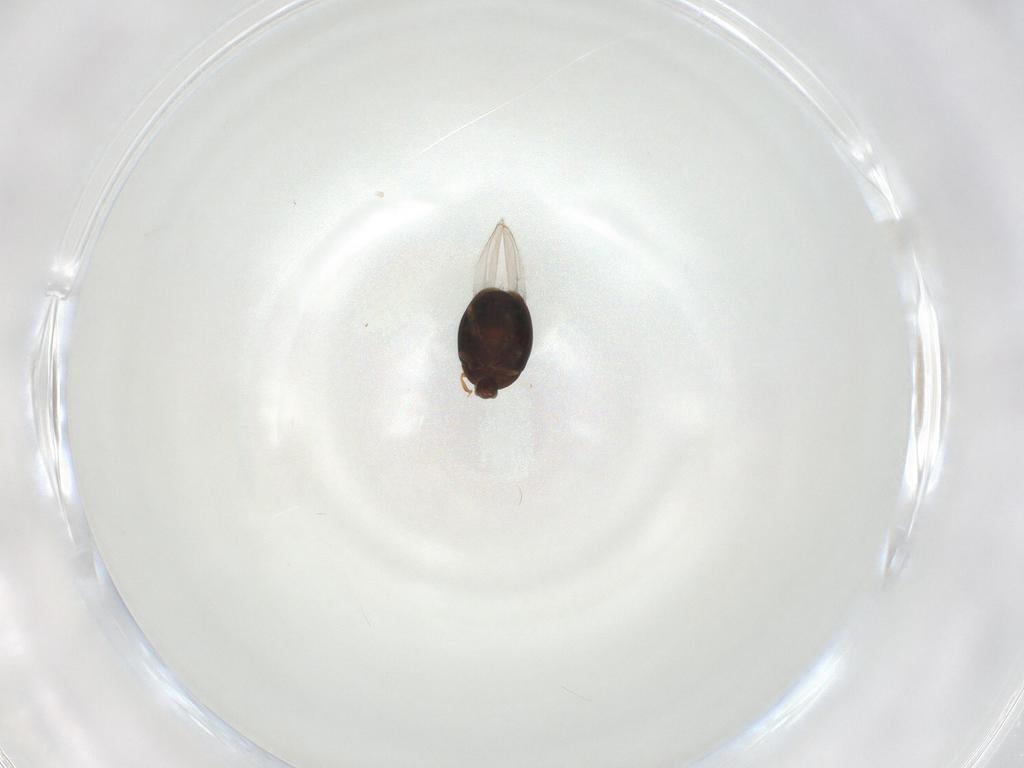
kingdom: Animalia
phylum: Arthropoda
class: Insecta
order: Coleoptera
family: Corylophidae
